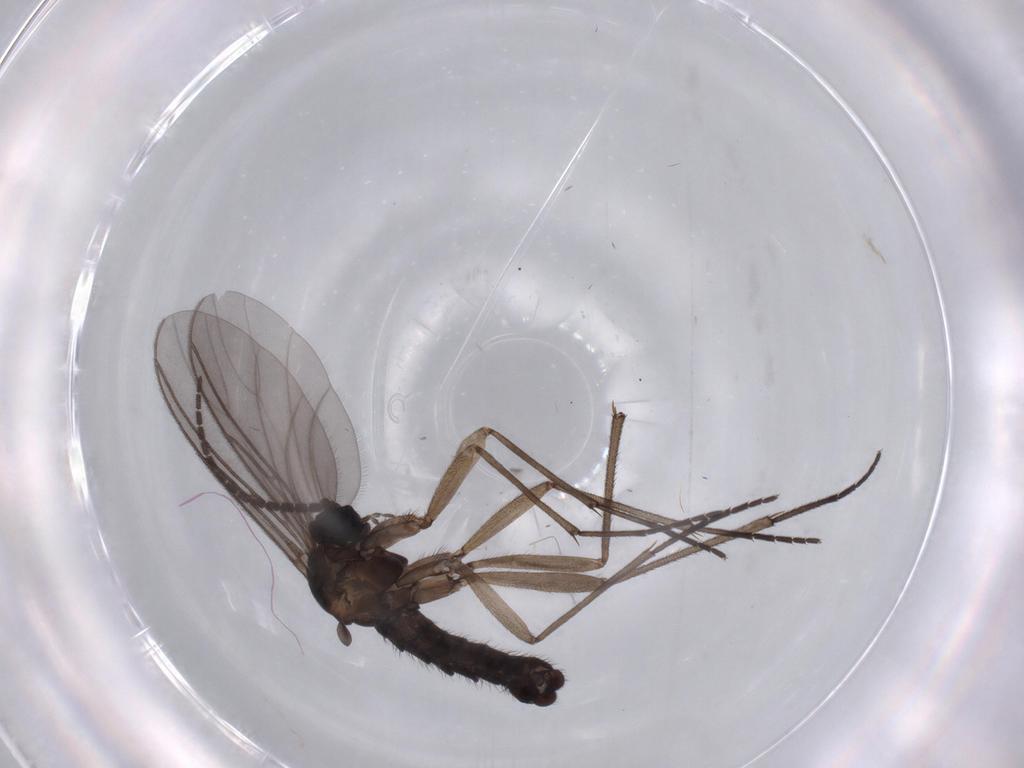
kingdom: Animalia
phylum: Arthropoda
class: Insecta
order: Diptera
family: Sciaridae
